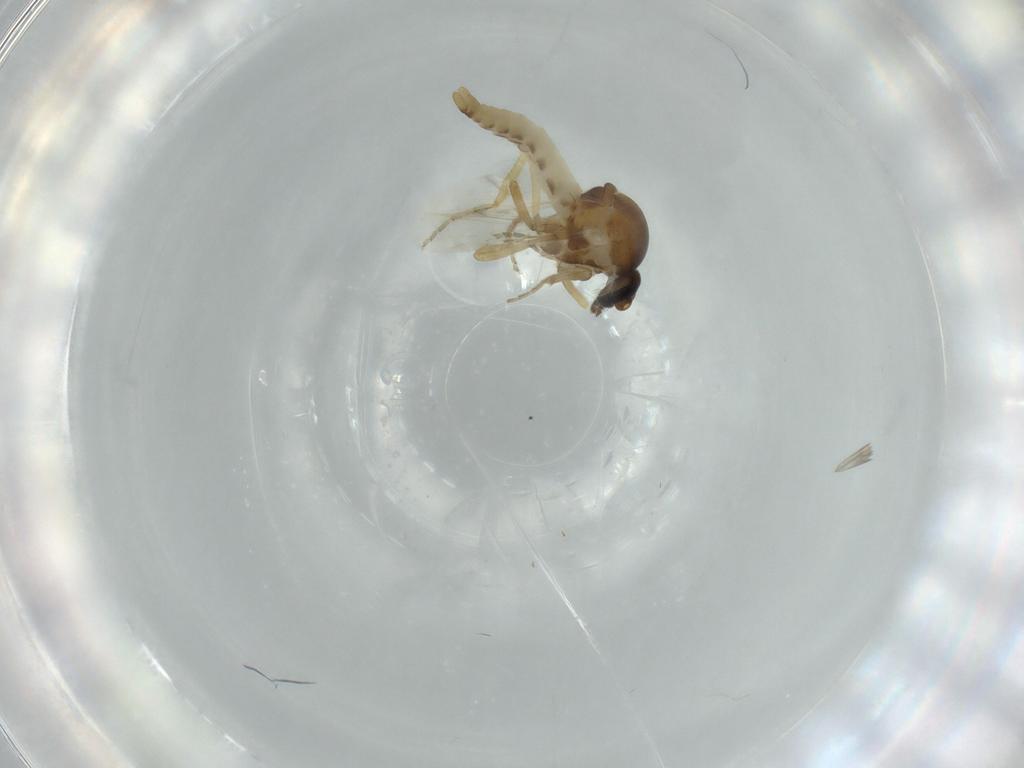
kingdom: Animalia
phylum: Arthropoda
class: Insecta
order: Diptera
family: Ceratopogonidae
